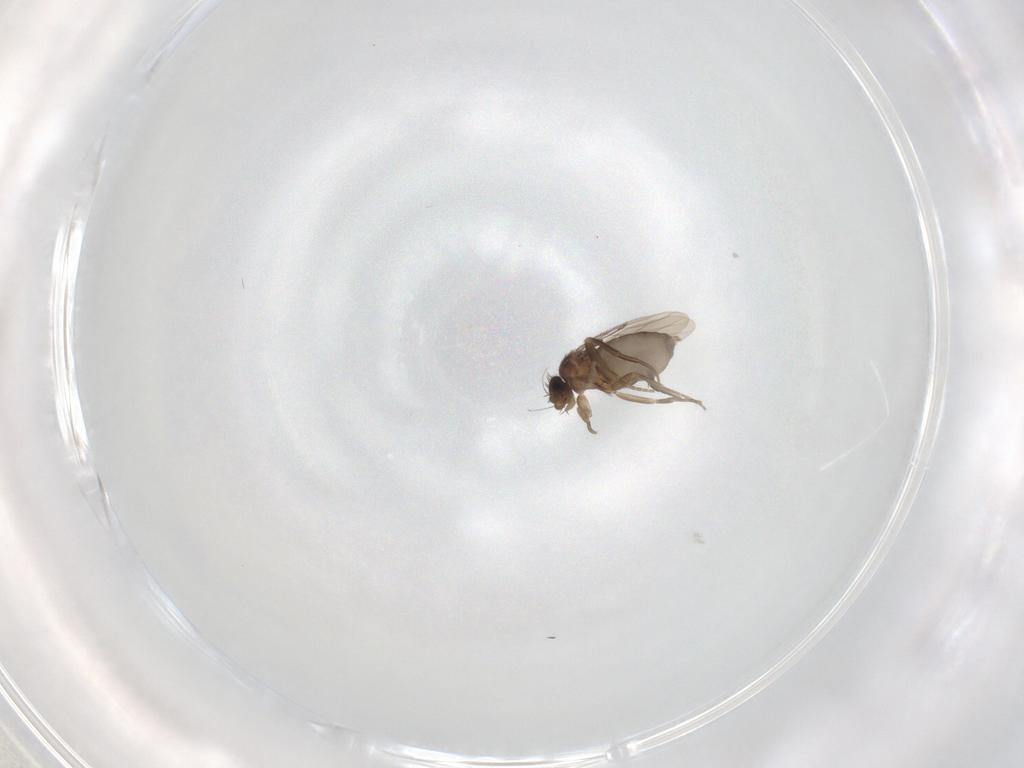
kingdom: Animalia
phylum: Arthropoda
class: Insecta
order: Diptera
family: Phoridae
